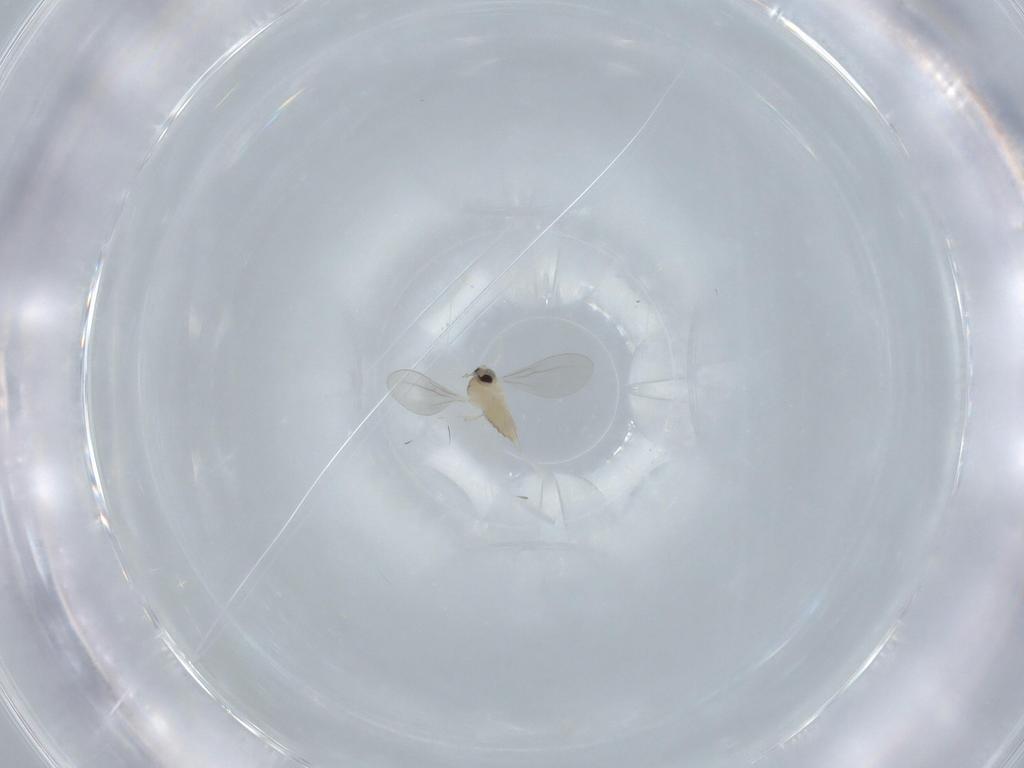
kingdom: Animalia
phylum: Arthropoda
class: Insecta
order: Diptera
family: Cecidomyiidae
